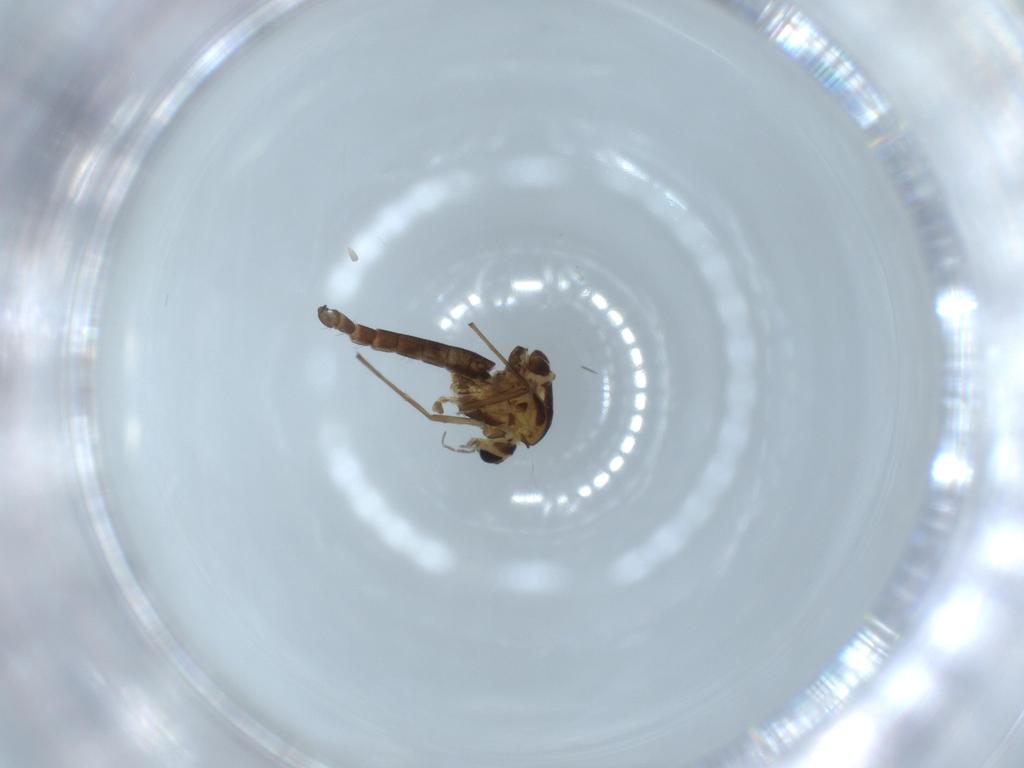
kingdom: Animalia
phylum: Arthropoda
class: Insecta
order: Diptera
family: Chironomidae
